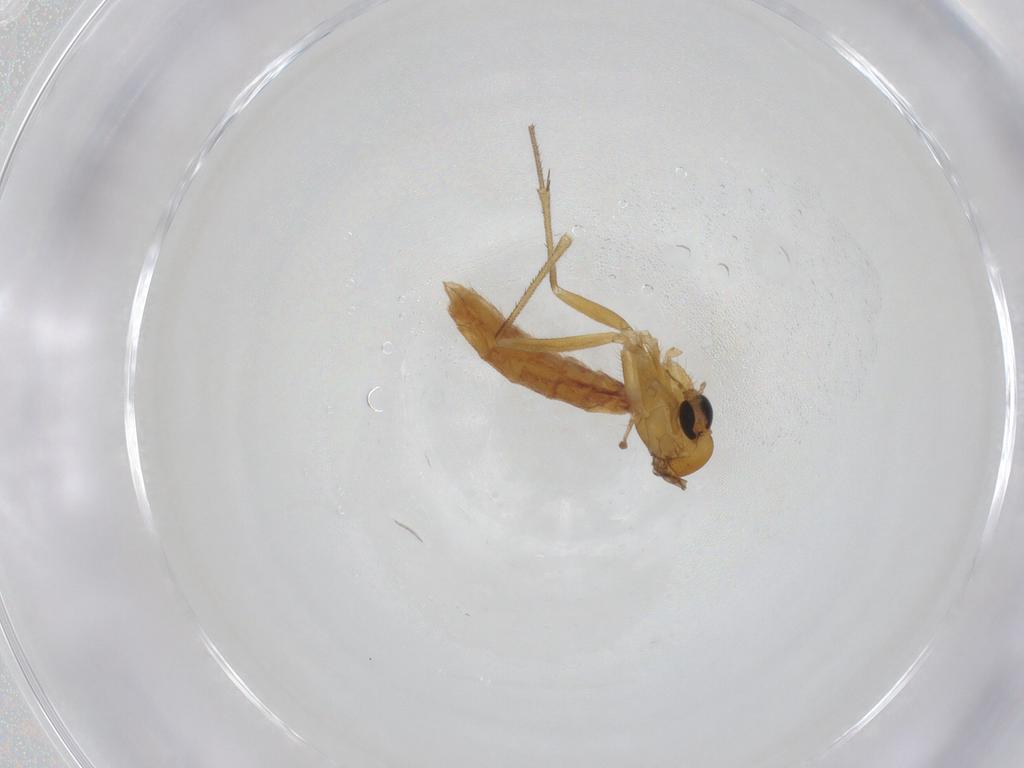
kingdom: Animalia
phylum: Arthropoda
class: Insecta
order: Diptera
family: Mycetophilidae
